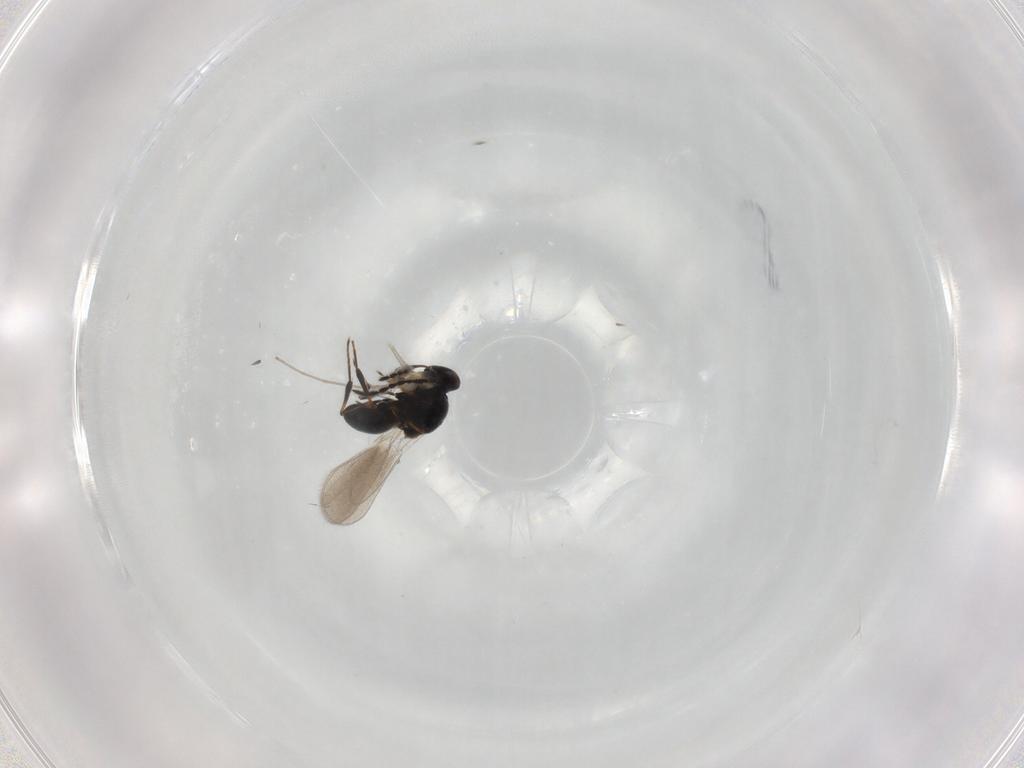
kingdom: Animalia
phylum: Arthropoda
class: Insecta
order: Hymenoptera
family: Platygastridae
